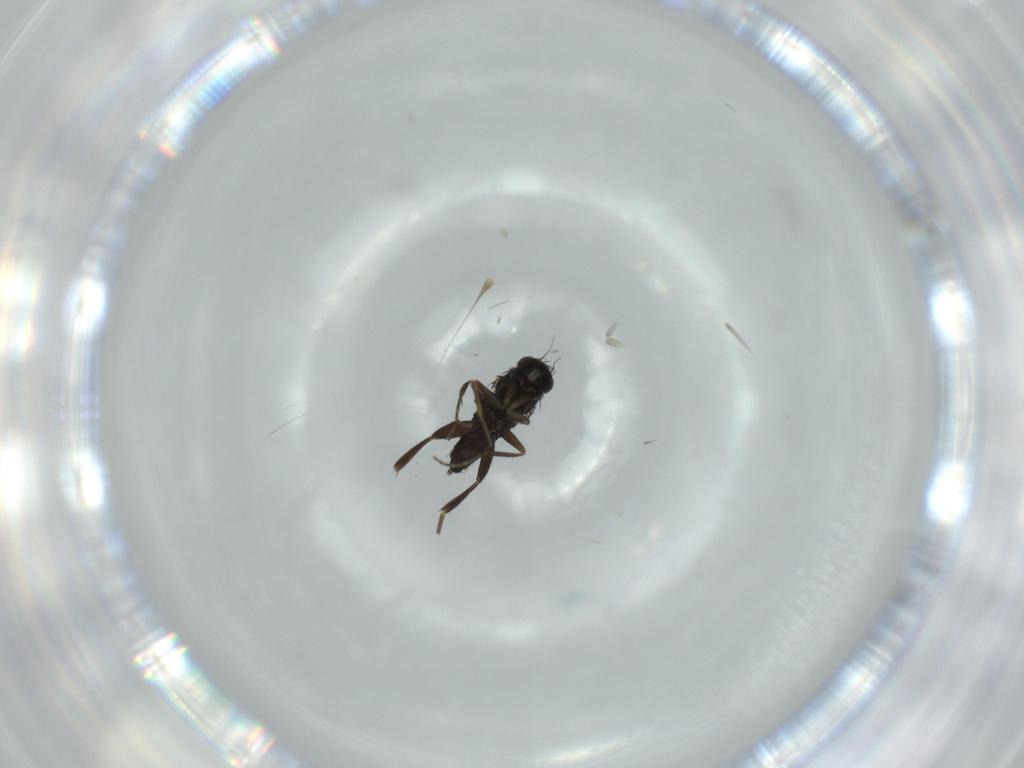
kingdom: Animalia
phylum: Arthropoda
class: Insecta
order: Diptera
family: Phoridae
